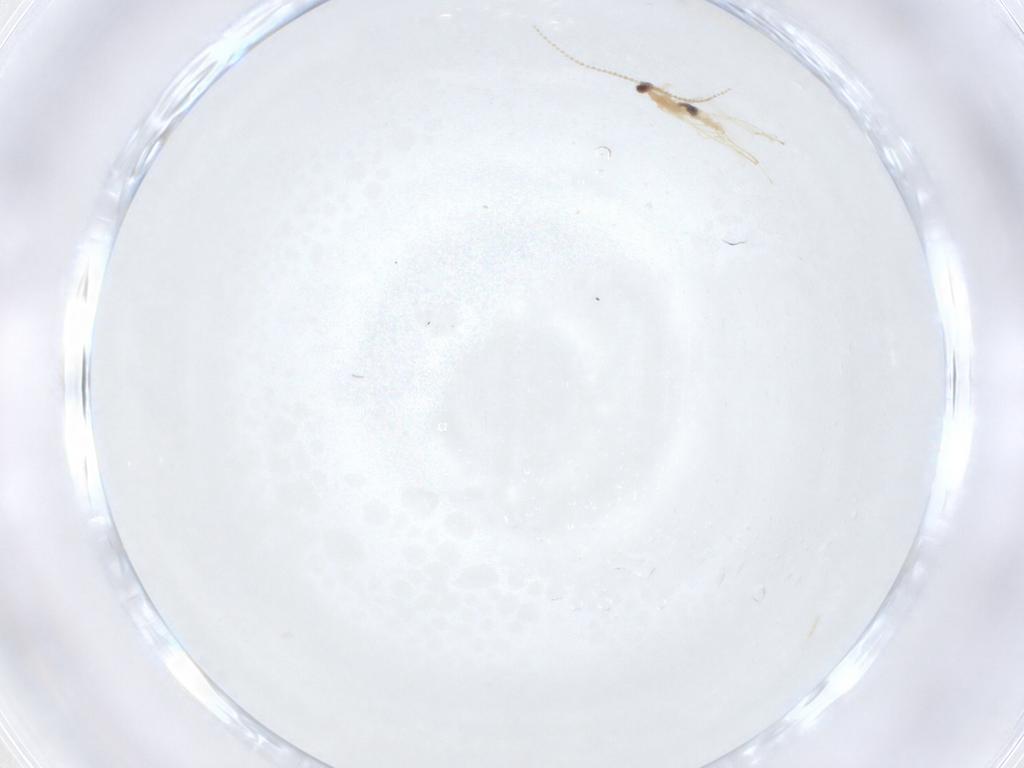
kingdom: Animalia
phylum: Arthropoda
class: Insecta
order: Diptera
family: Cecidomyiidae
